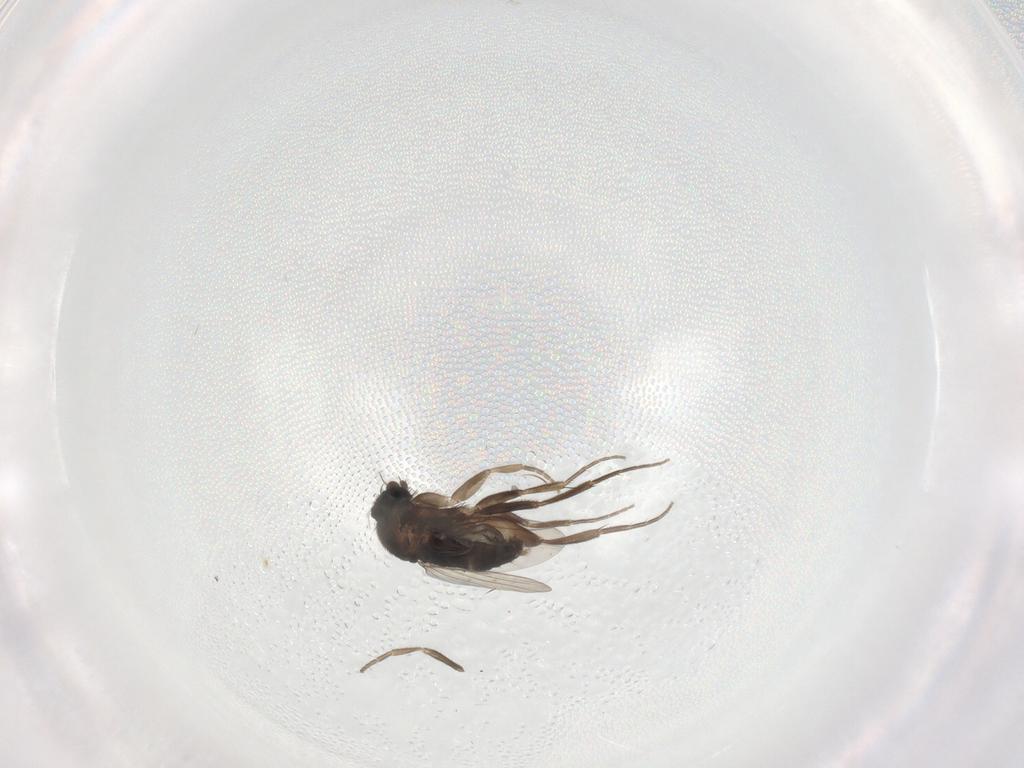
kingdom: Animalia
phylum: Arthropoda
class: Insecta
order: Diptera
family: Sciaridae
